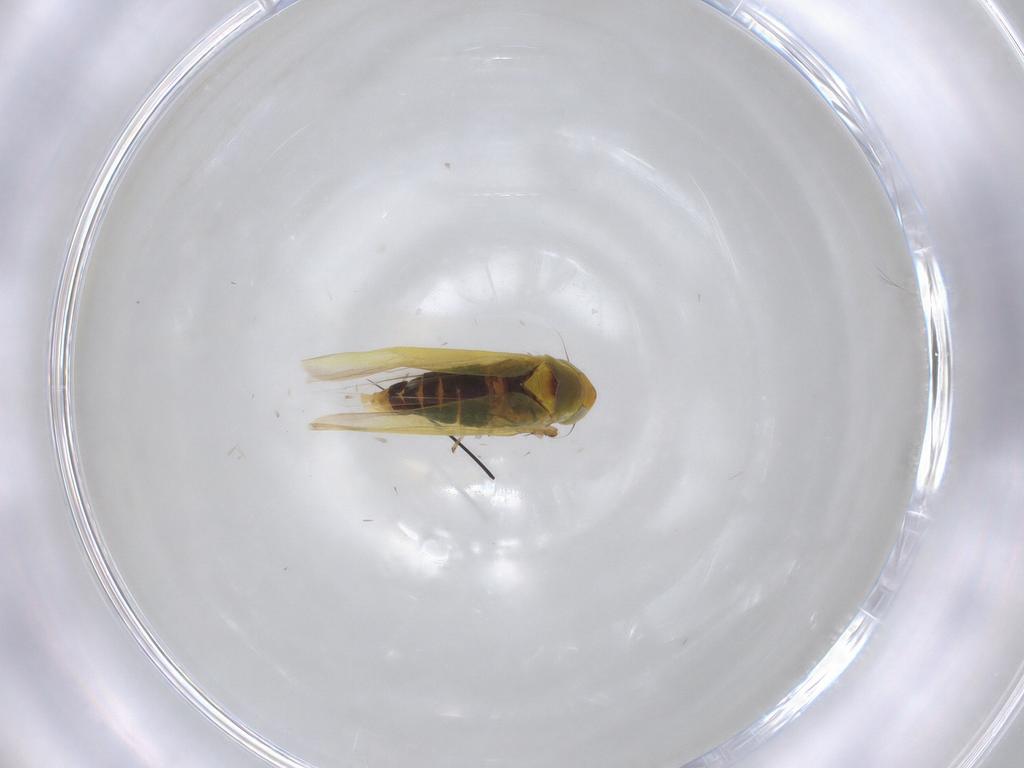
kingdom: Animalia
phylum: Arthropoda
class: Insecta
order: Hemiptera
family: Cicadellidae
